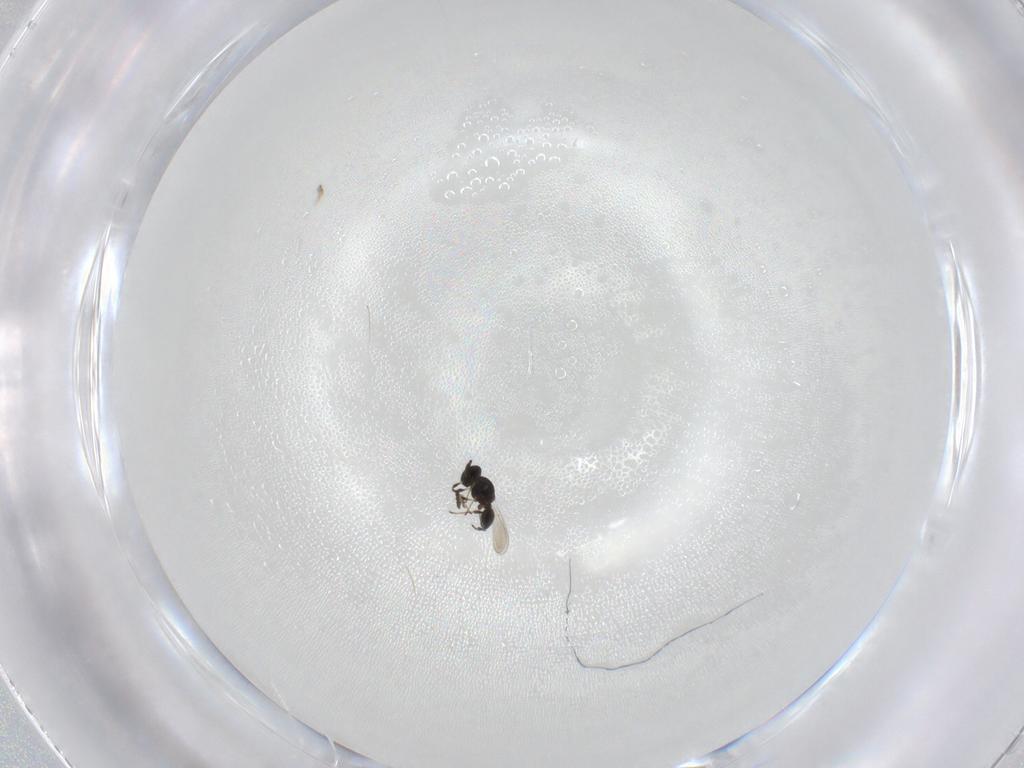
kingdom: Animalia
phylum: Arthropoda
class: Insecta
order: Hymenoptera
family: Platygastridae
